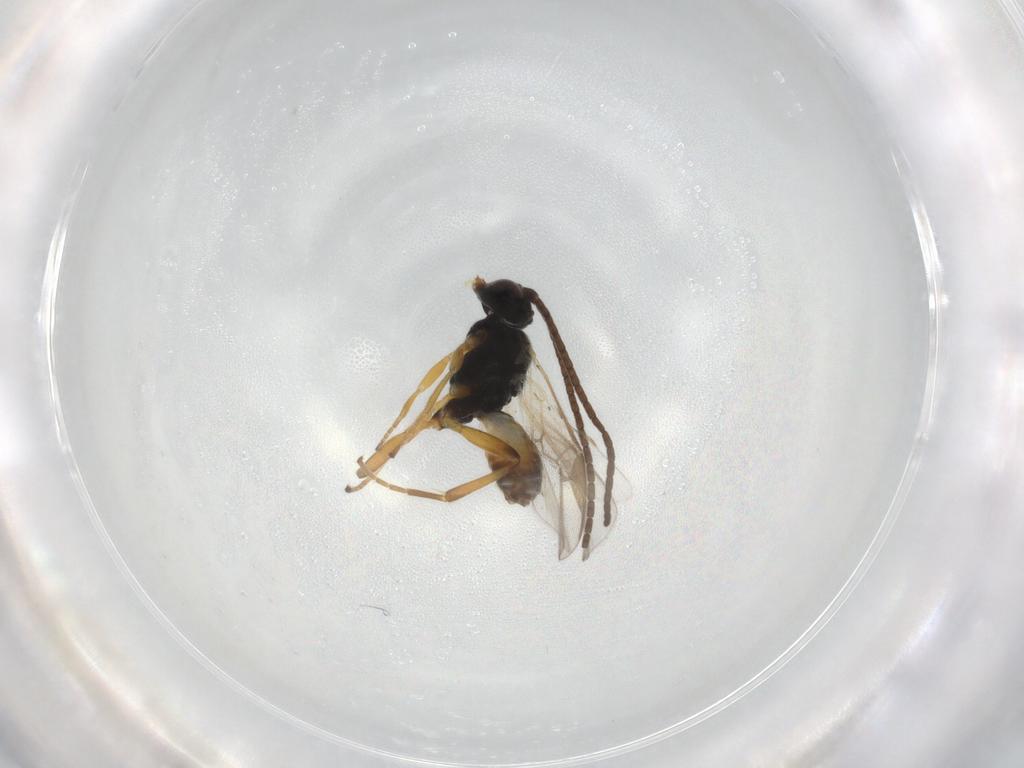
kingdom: Animalia
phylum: Arthropoda
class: Insecta
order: Hymenoptera
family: Braconidae
